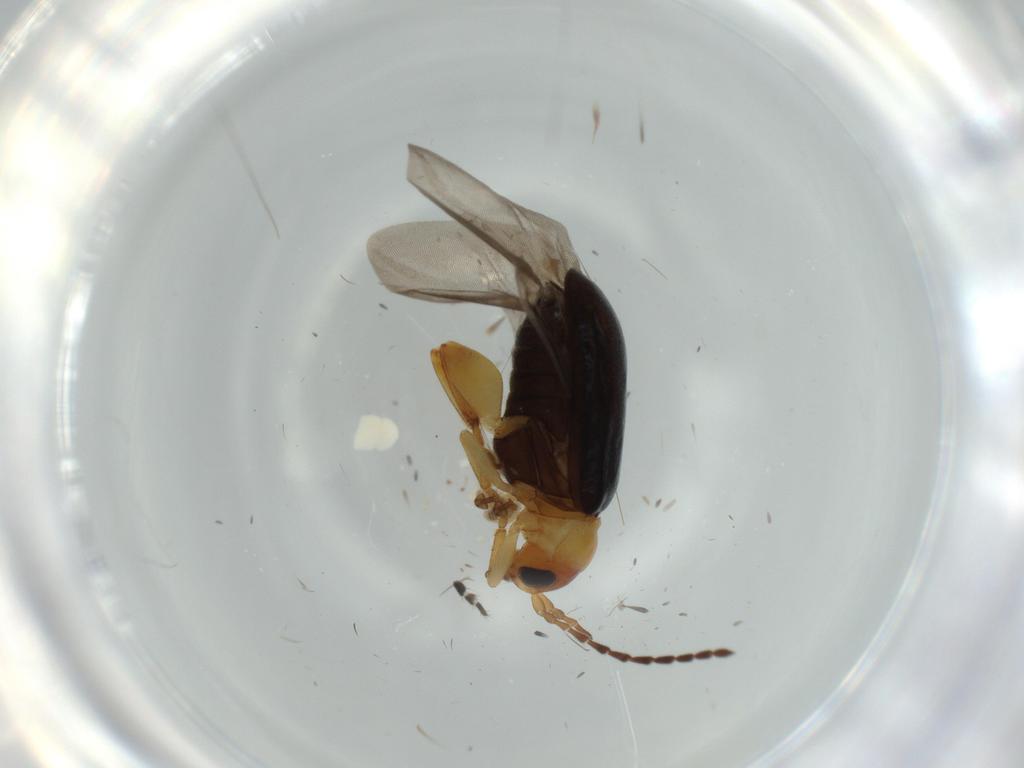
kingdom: Animalia
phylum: Arthropoda
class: Insecta
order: Coleoptera
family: Chrysomelidae
